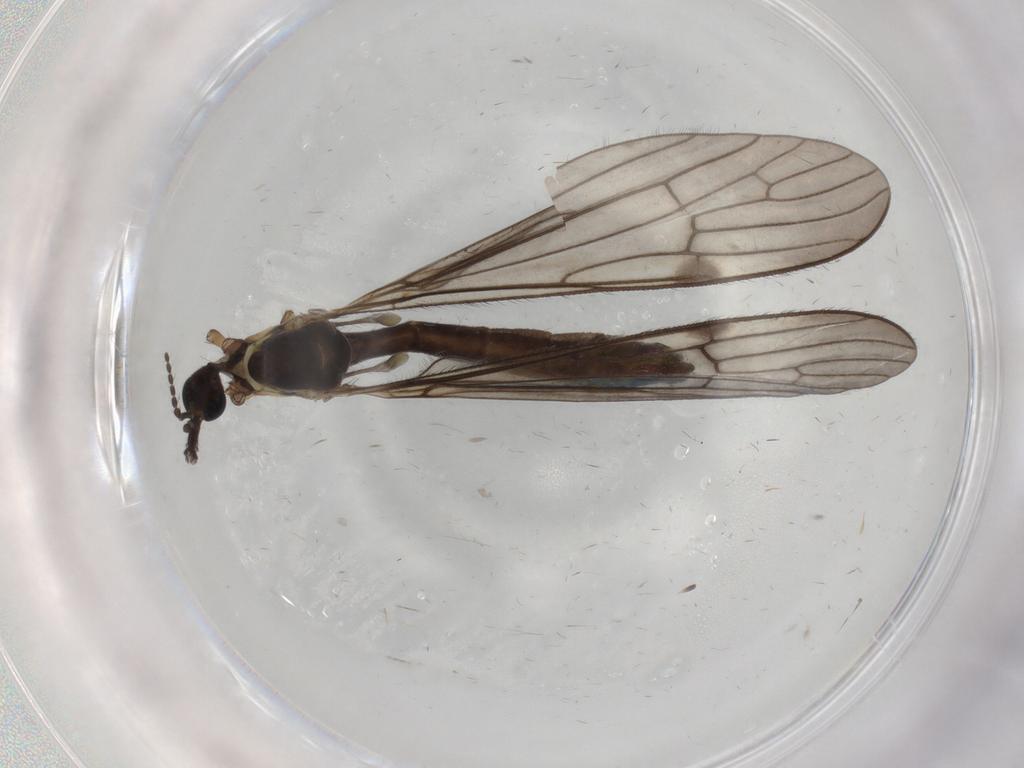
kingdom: Animalia
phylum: Arthropoda
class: Insecta
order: Diptera
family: Limoniidae
